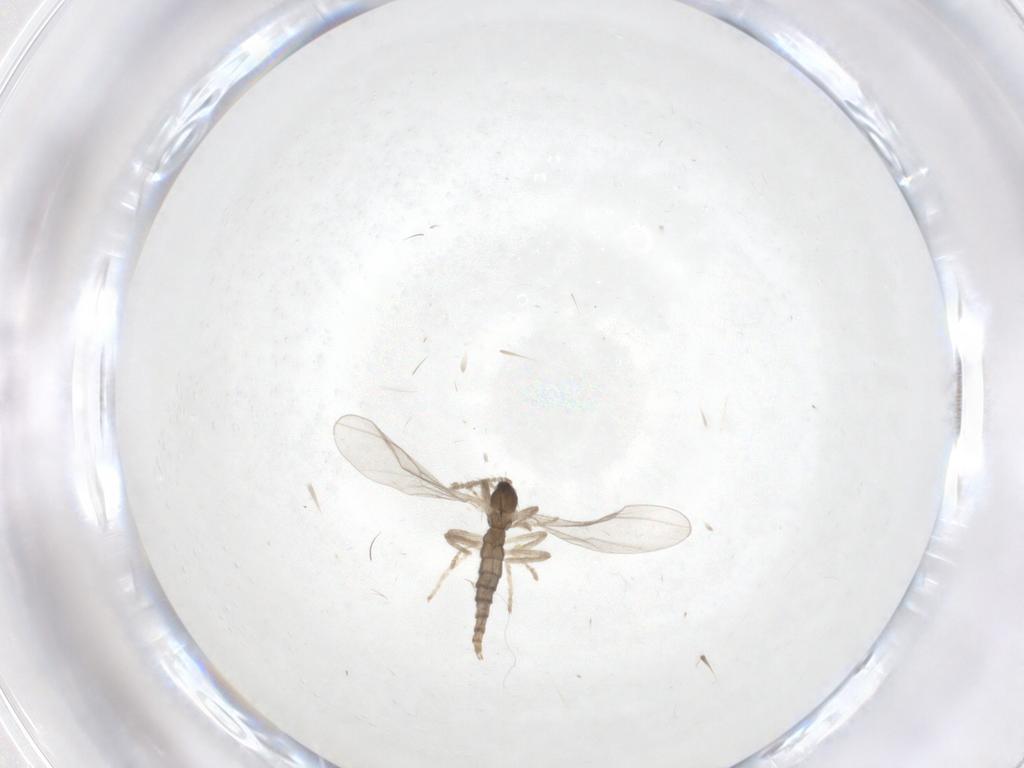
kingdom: Animalia
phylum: Arthropoda
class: Insecta
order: Diptera
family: Cecidomyiidae
